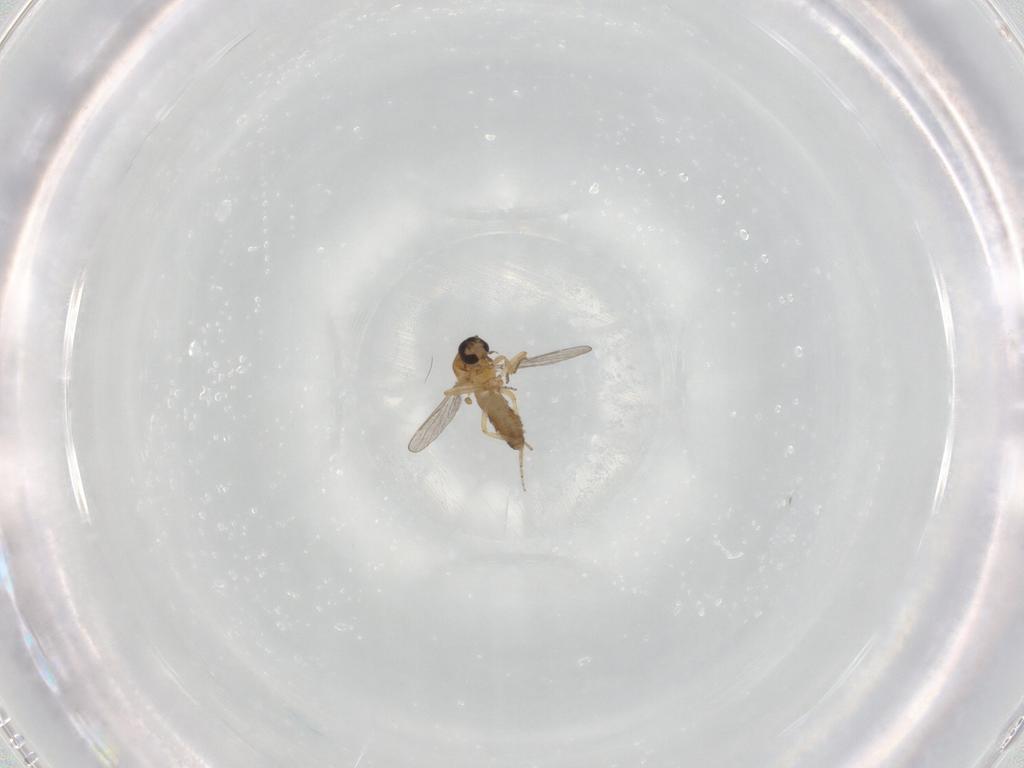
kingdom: Animalia
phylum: Arthropoda
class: Insecta
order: Diptera
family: Ceratopogonidae
